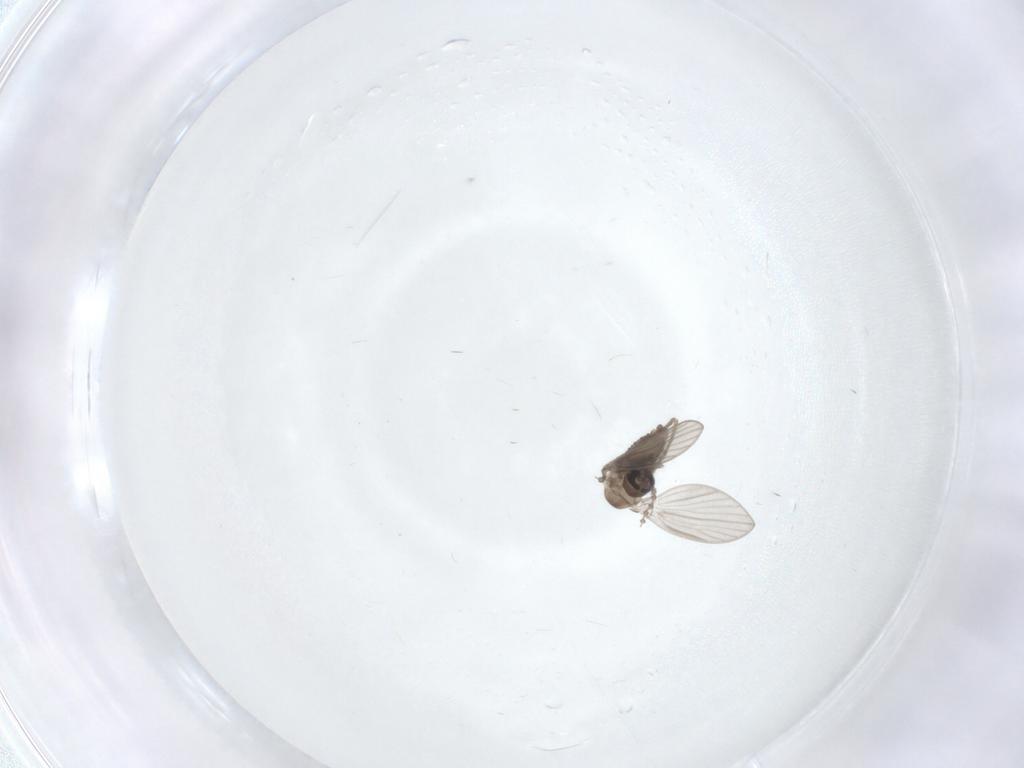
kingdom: Animalia
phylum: Arthropoda
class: Insecta
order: Diptera
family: Psychodidae
